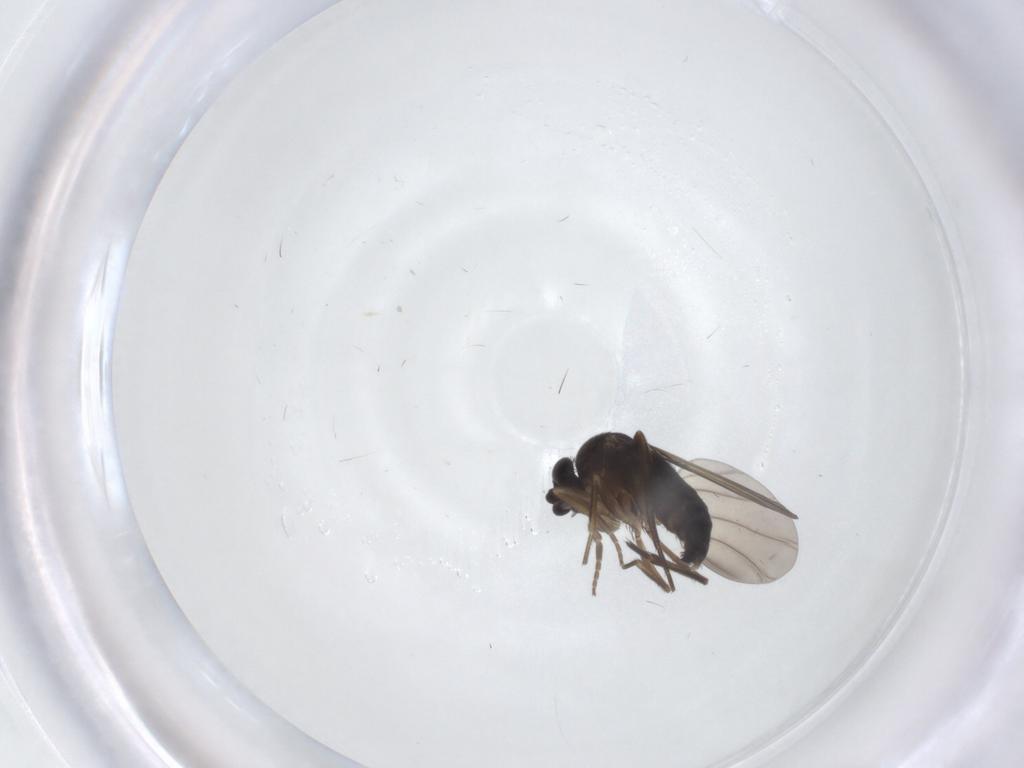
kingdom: Animalia
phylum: Arthropoda
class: Insecta
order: Diptera
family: Phoridae
